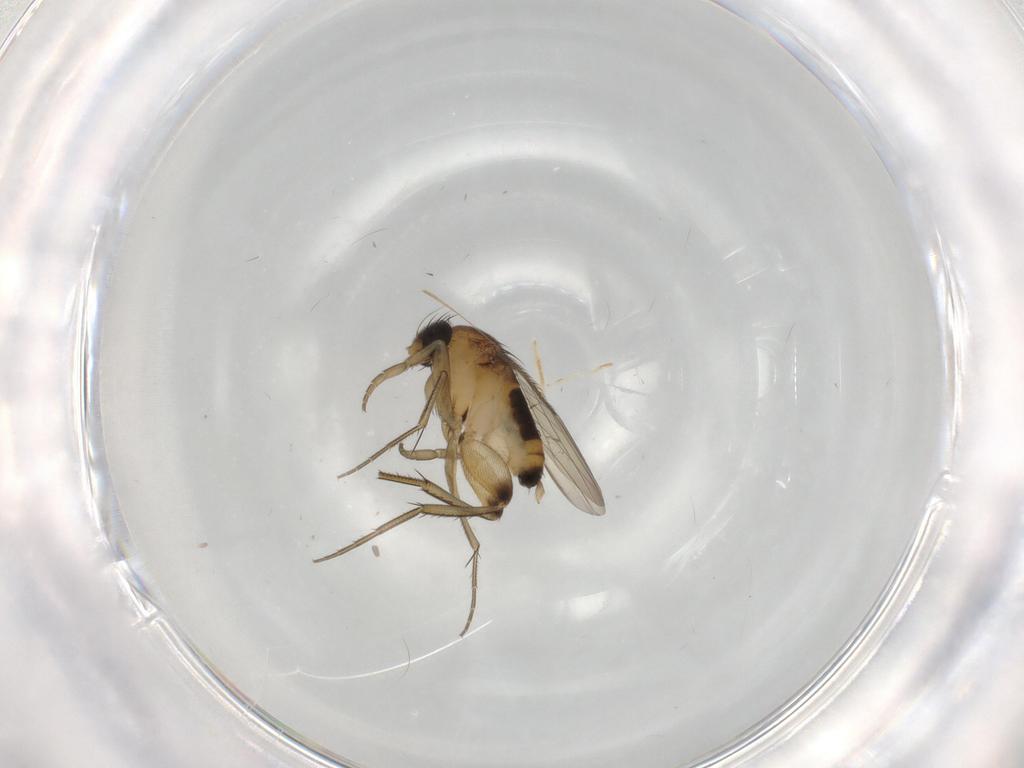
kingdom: Animalia
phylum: Arthropoda
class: Insecta
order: Diptera
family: Phoridae
